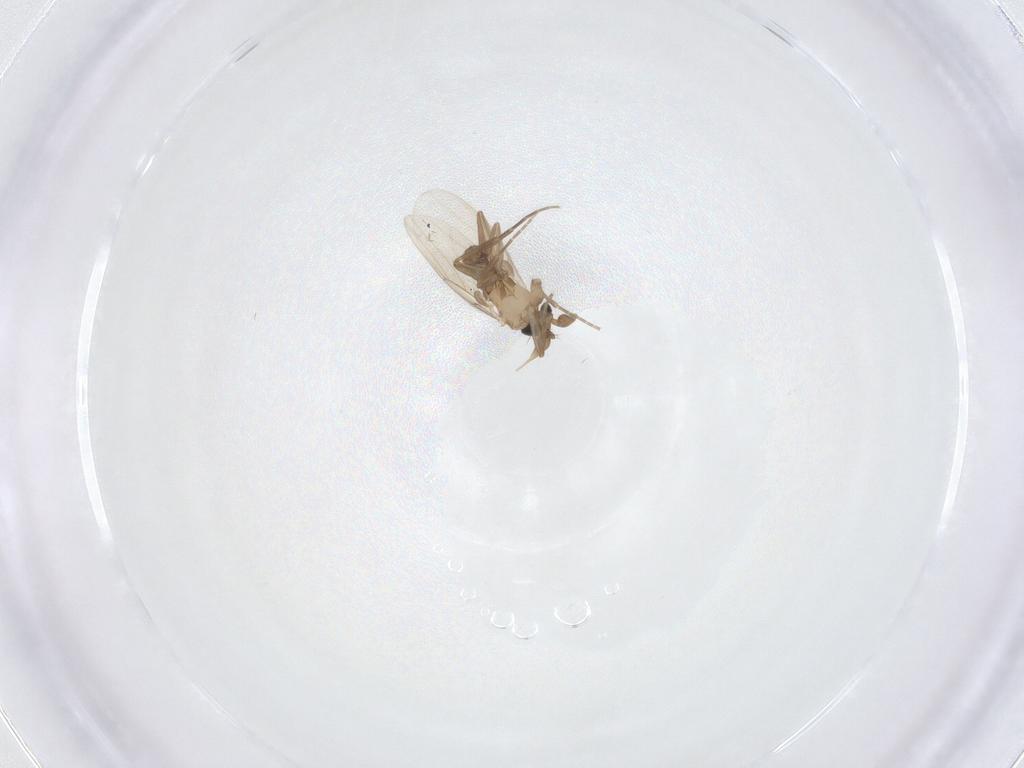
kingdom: Animalia
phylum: Arthropoda
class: Insecta
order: Diptera
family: Phoridae
